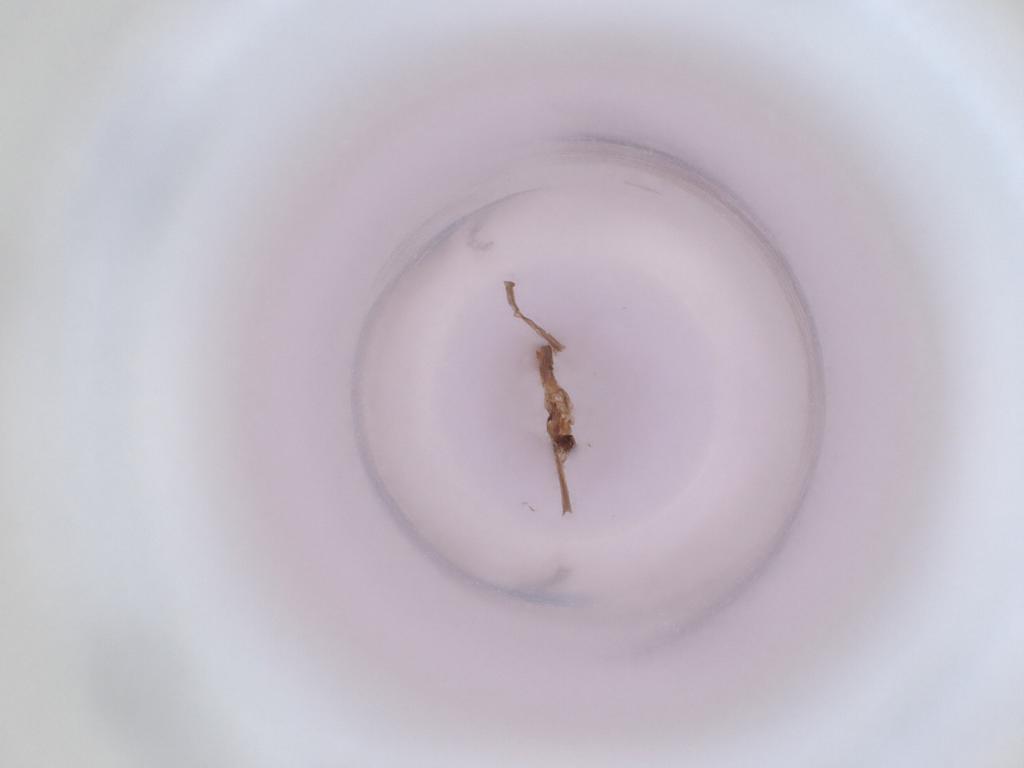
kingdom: Animalia
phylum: Arthropoda
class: Insecta
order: Diptera
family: Cecidomyiidae
